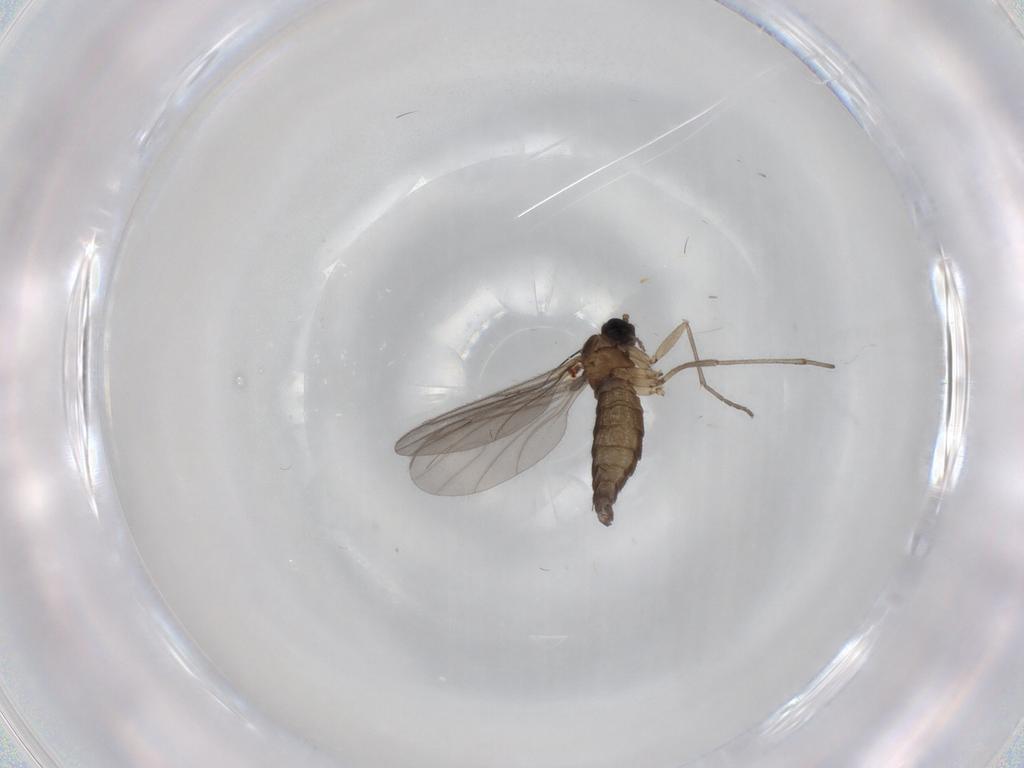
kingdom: Animalia
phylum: Arthropoda
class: Insecta
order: Diptera
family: Sciaridae
